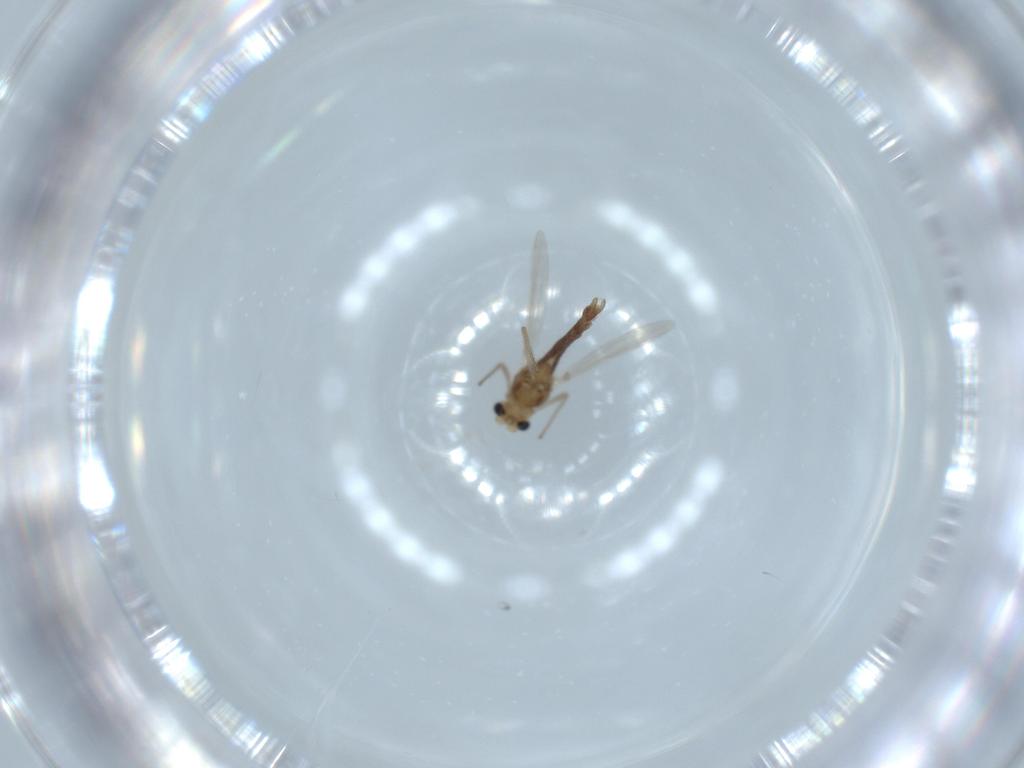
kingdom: Animalia
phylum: Arthropoda
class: Insecta
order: Diptera
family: Chironomidae
